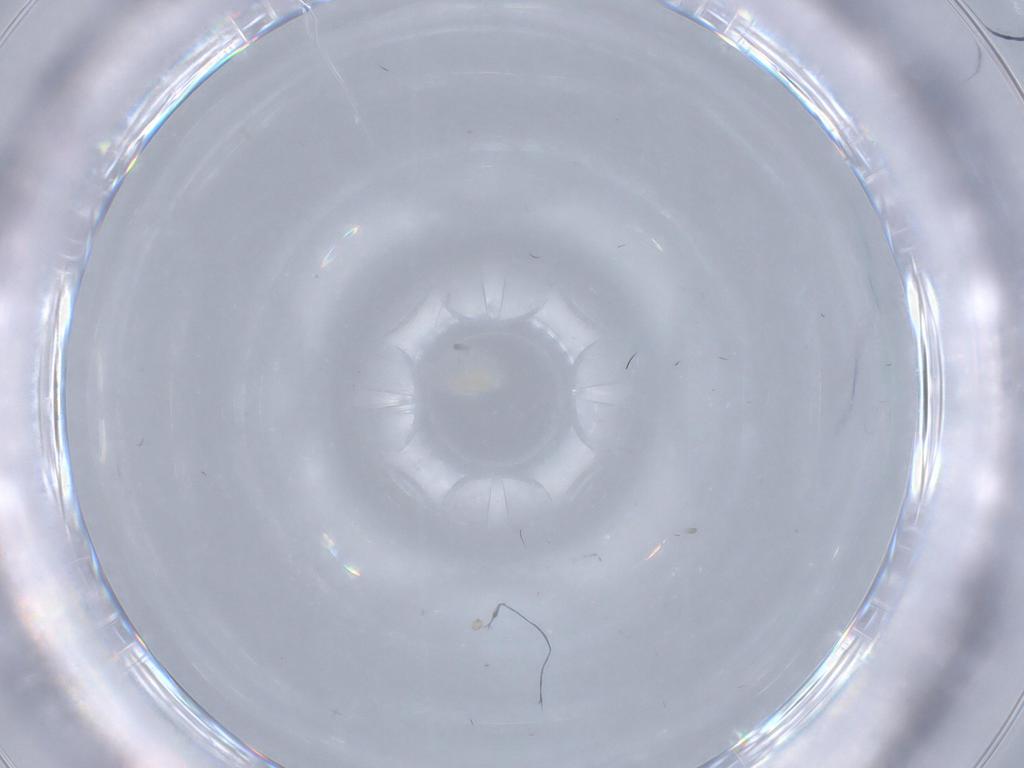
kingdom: Animalia
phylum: Arthropoda
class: Arachnida
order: Trombidiformes
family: Eupodidae
